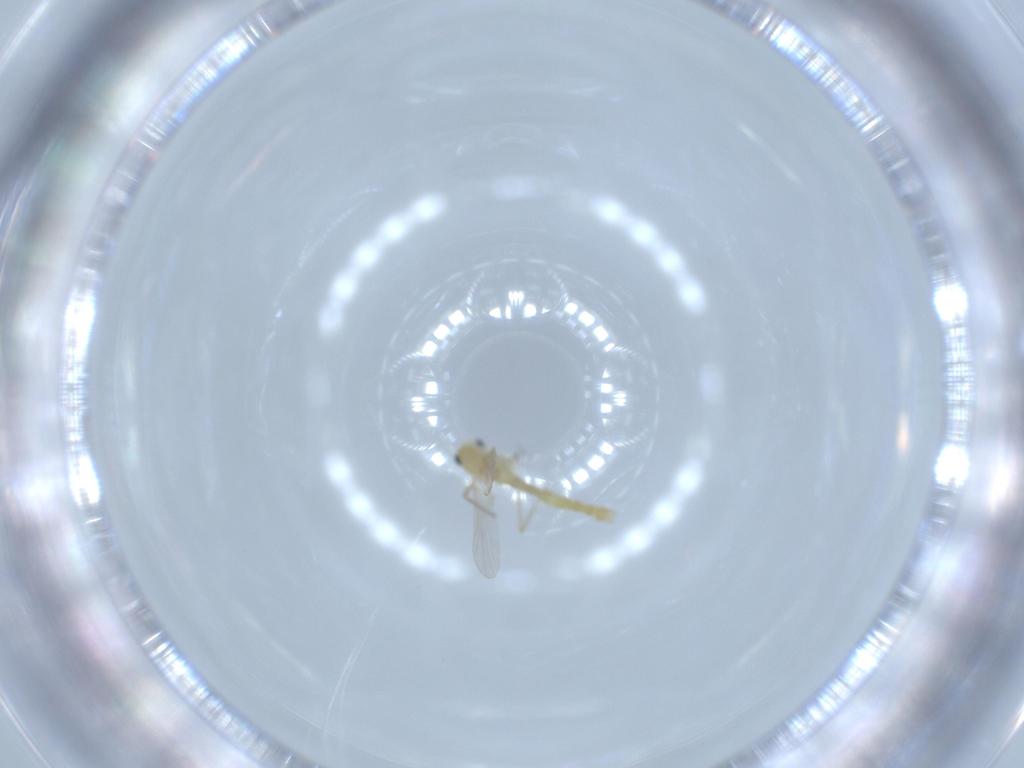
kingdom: Animalia
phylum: Arthropoda
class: Insecta
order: Diptera
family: Chironomidae
